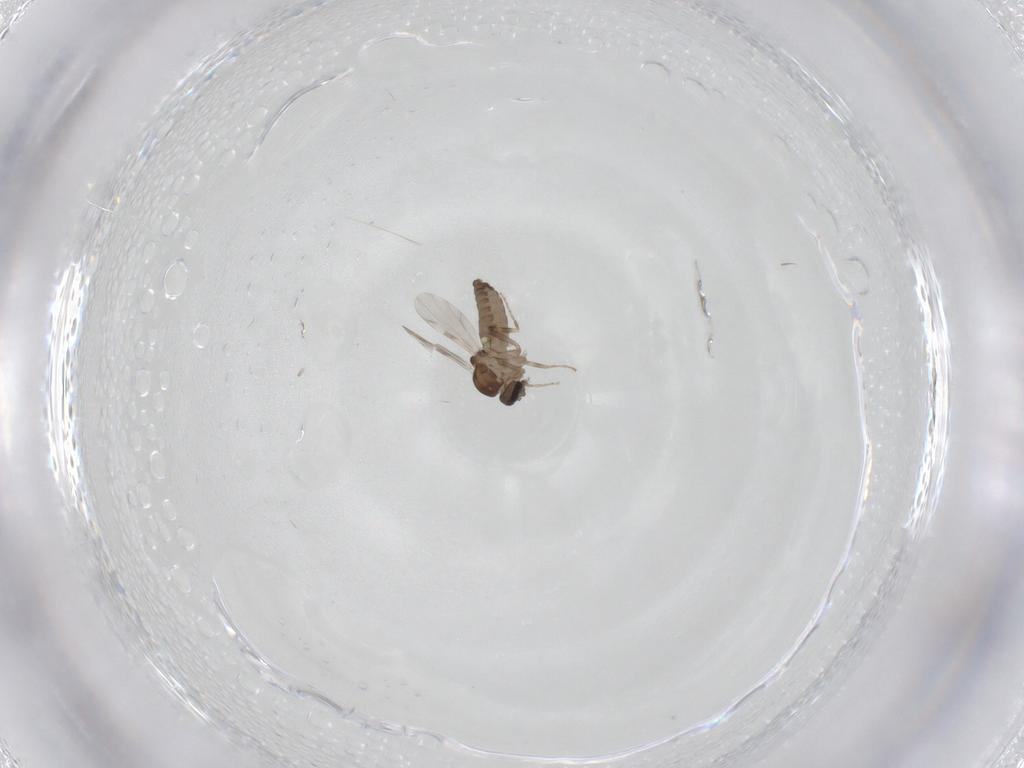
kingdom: Animalia
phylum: Arthropoda
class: Insecta
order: Diptera
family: Ceratopogonidae
